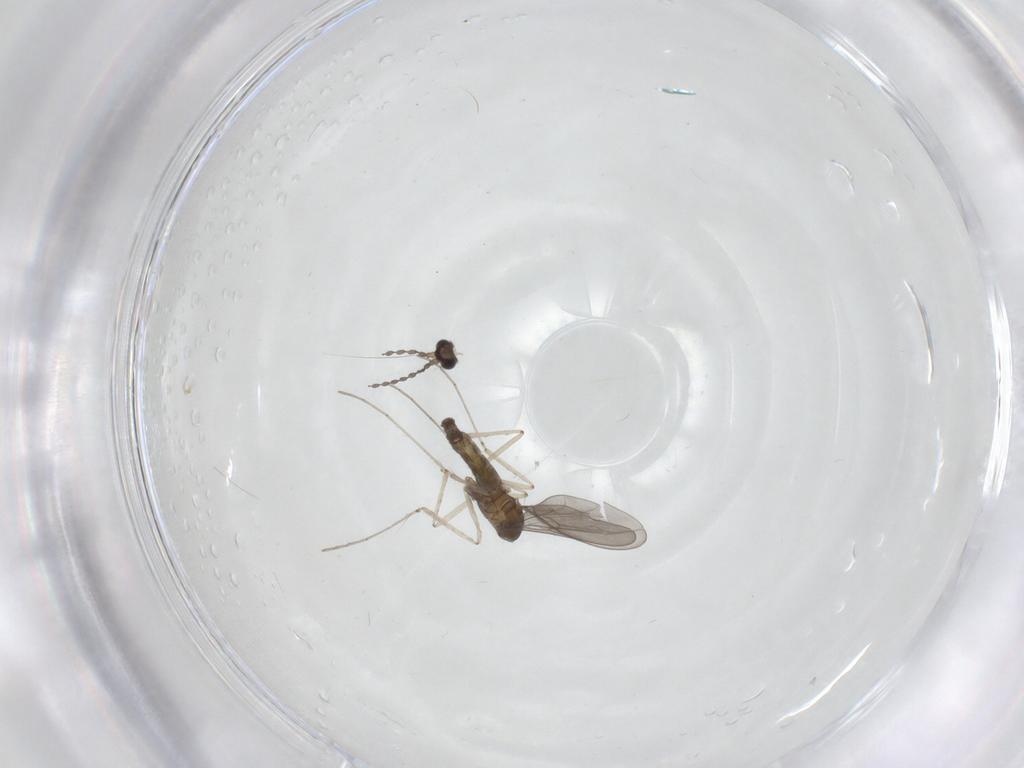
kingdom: Animalia
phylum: Arthropoda
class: Insecta
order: Diptera
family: Cecidomyiidae
